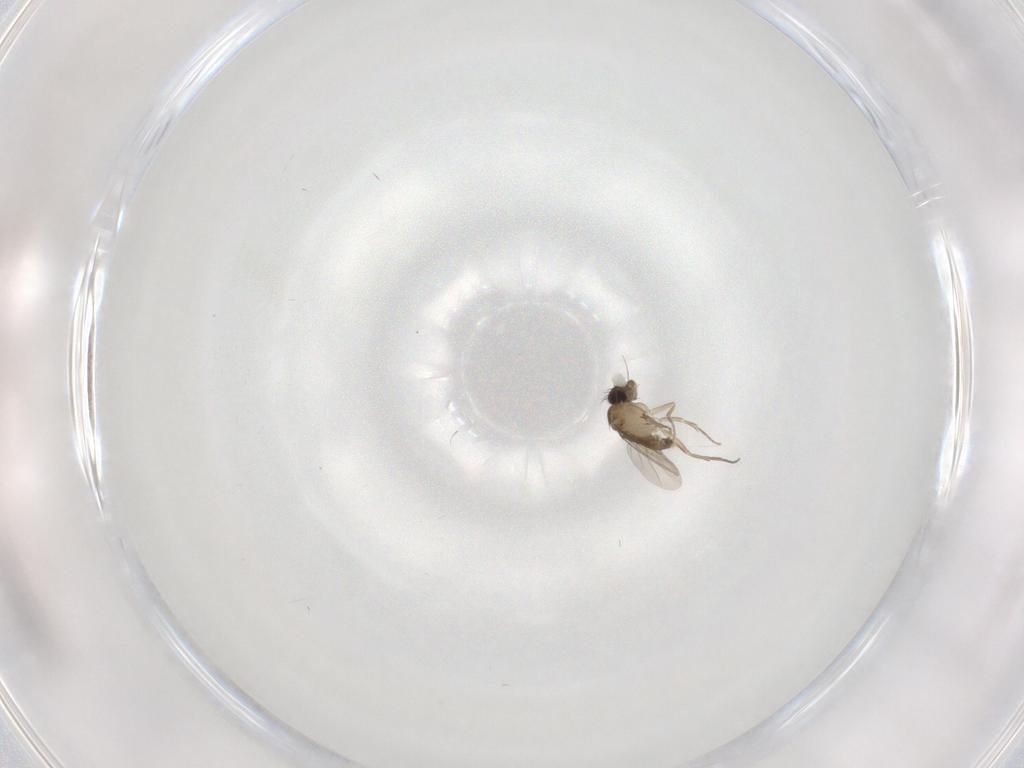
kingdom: Animalia
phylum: Arthropoda
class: Insecta
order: Diptera
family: Phoridae
